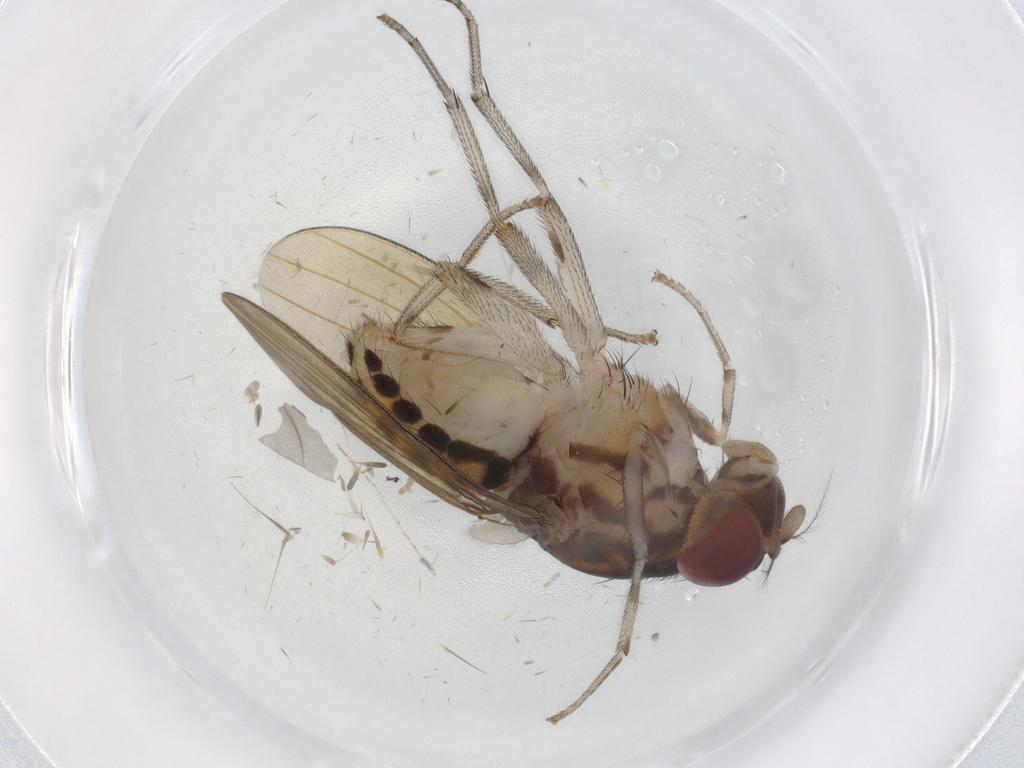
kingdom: Animalia
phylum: Arthropoda
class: Insecta
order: Diptera
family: Lauxaniidae
